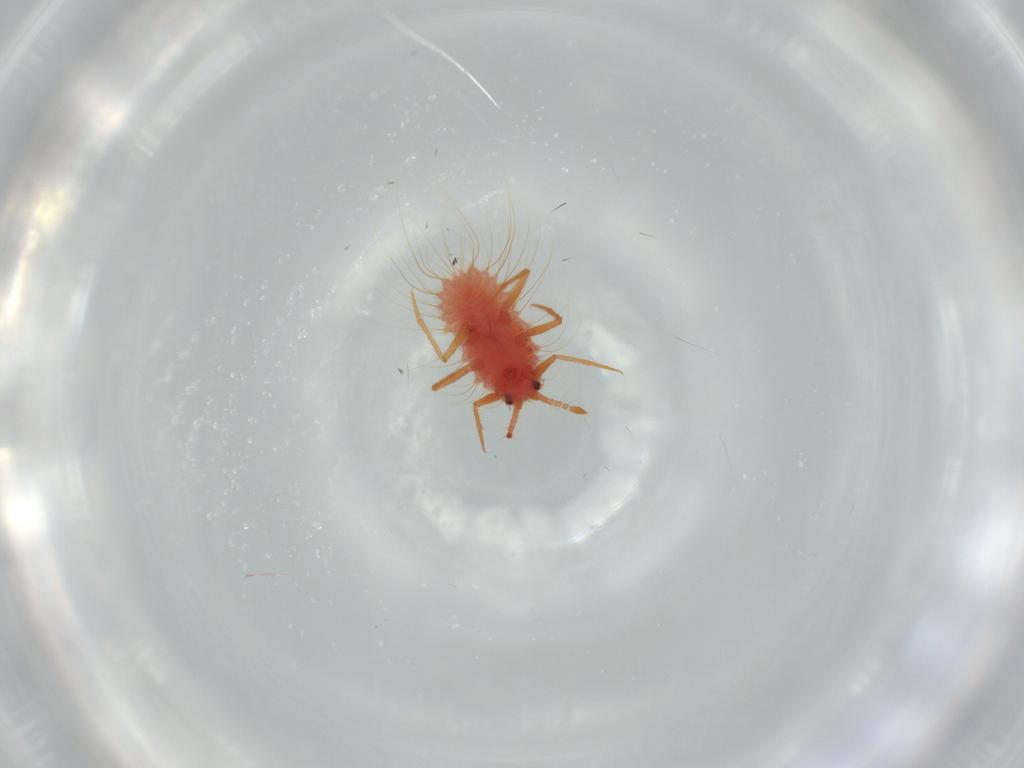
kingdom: Animalia
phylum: Arthropoda
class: Insecta
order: Hemiptera
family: Monophlebidae
